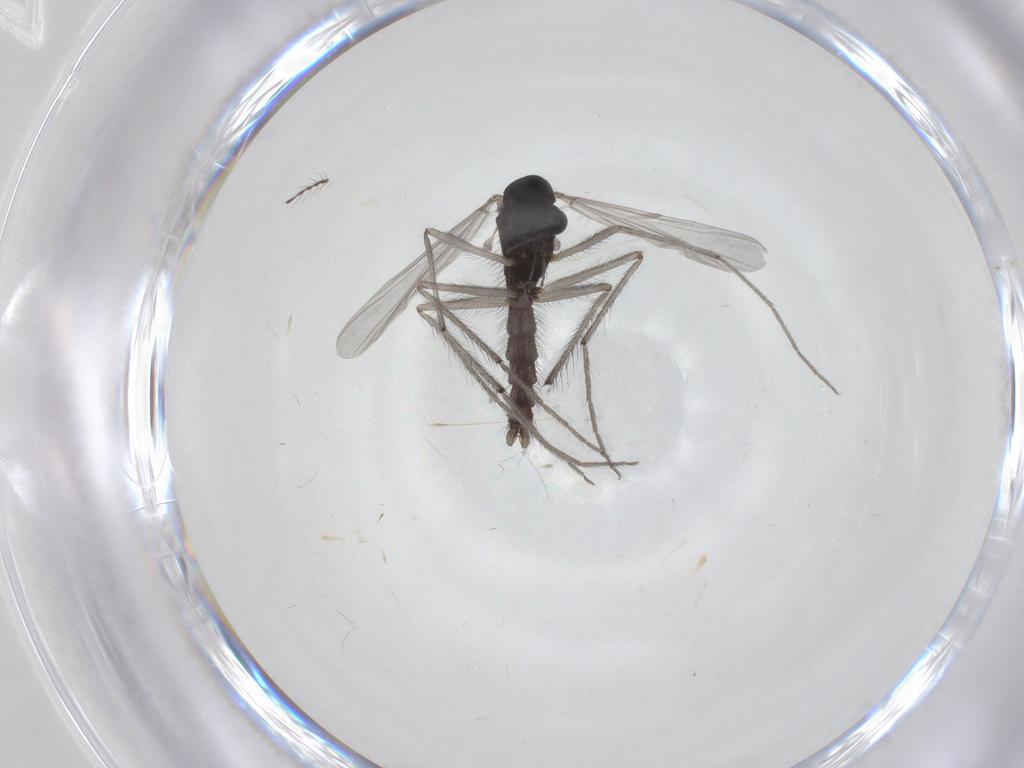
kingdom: Animalia
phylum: Arthropoda
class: Insecta
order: Diptera
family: Chironomidae
